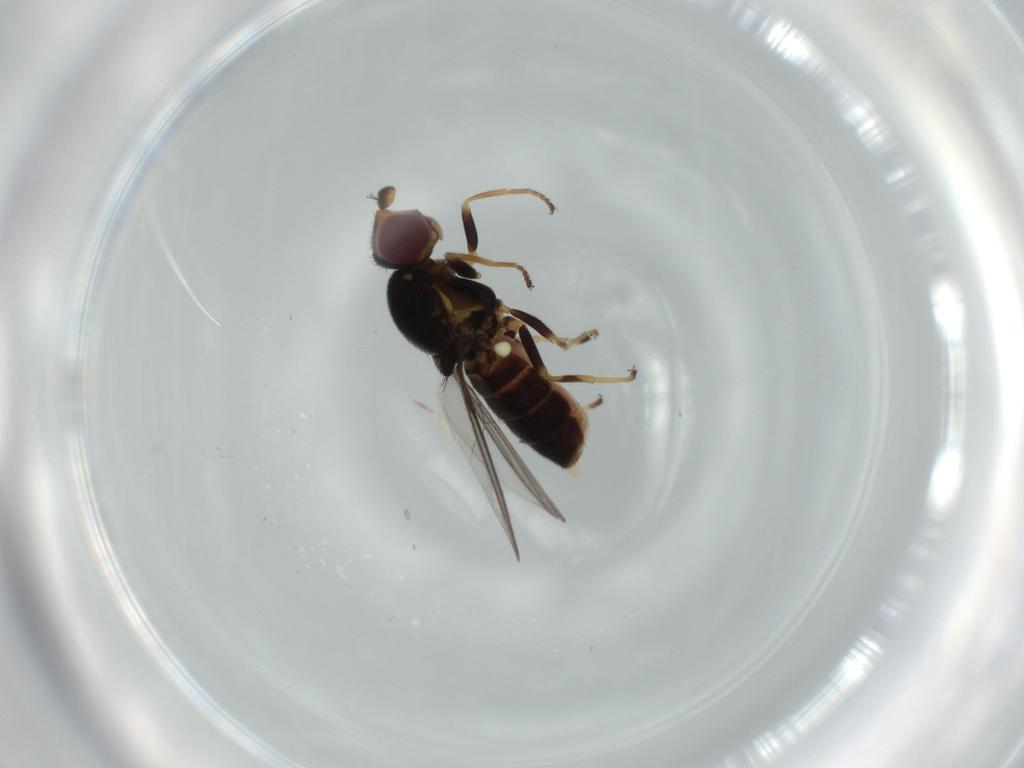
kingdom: Animalia
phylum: Arthropoda
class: Insecta
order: Diptera
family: Chloropidae
